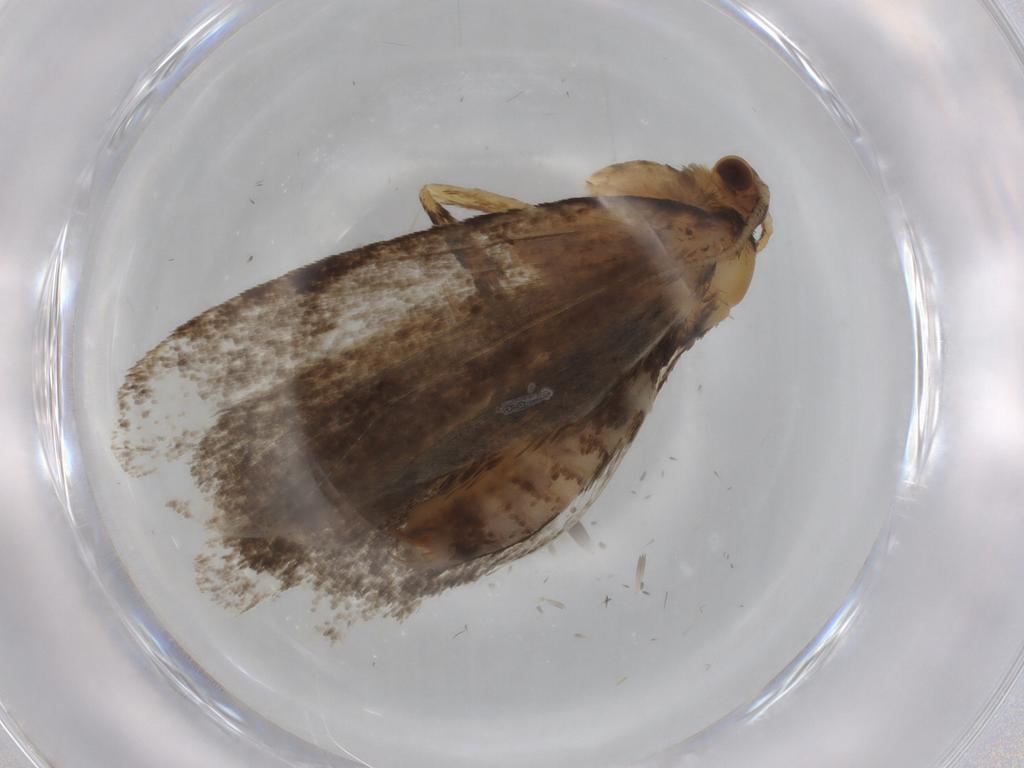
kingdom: Animalia
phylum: Arthropoda
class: Insecta
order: Lepidoptera
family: Tineidae
